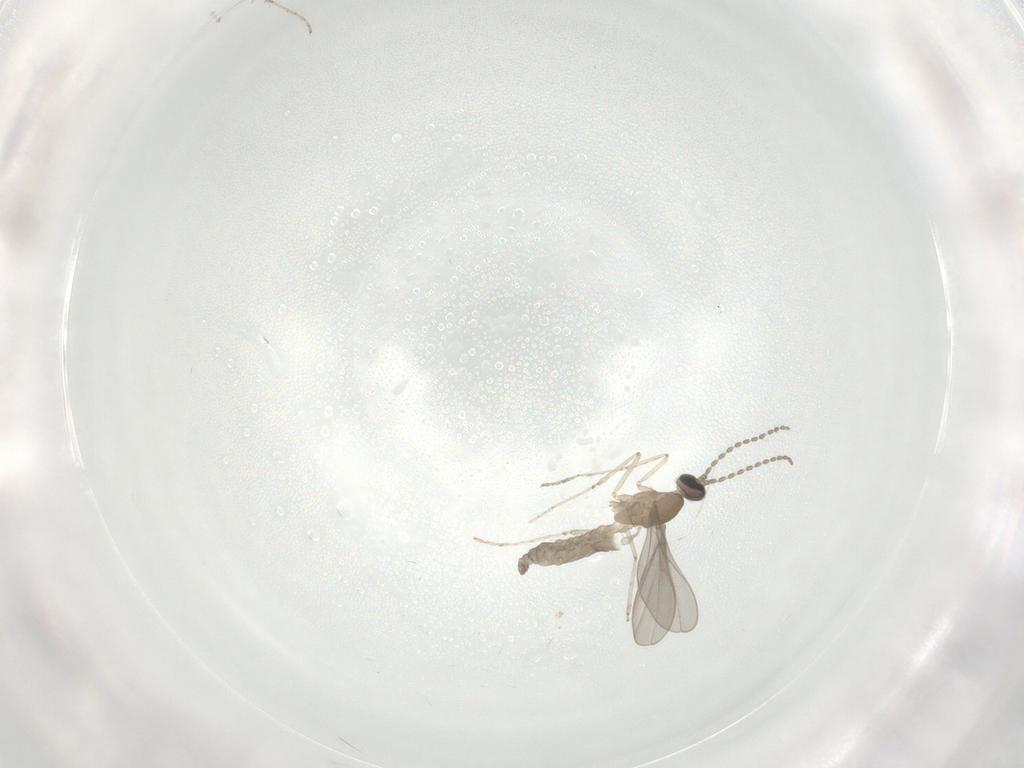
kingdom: Animalia
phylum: Arthropoda
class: Insecta
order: Diptera
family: Cecidomyiidae
